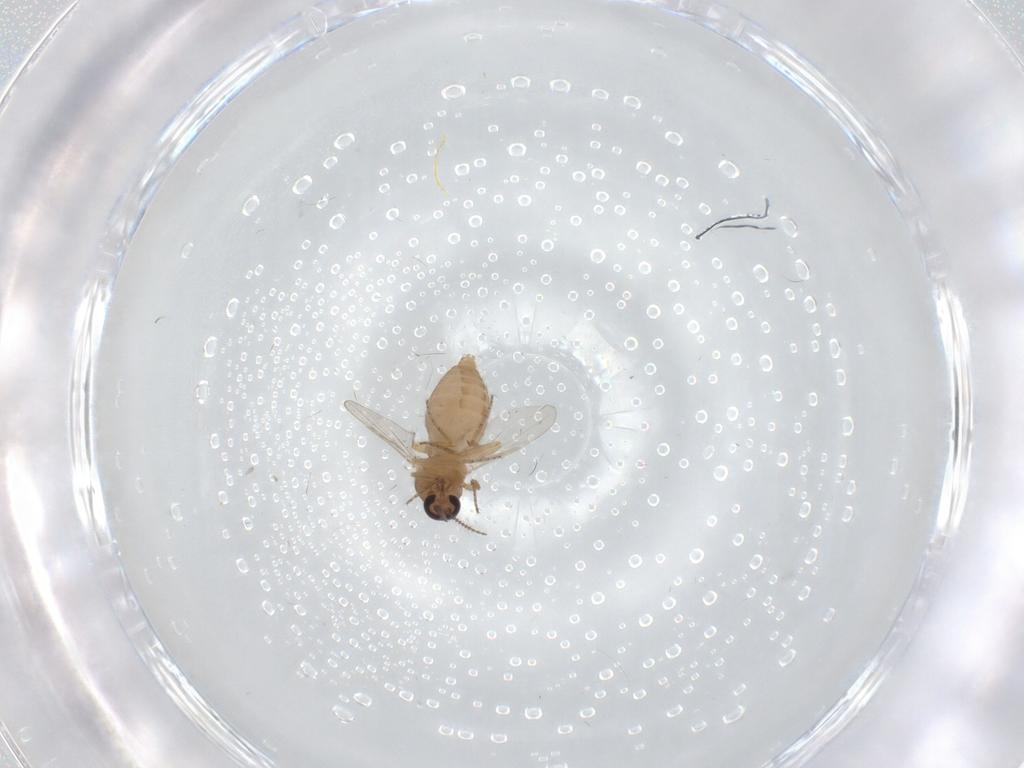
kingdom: Animalia
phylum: Arthropoda
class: Insecta
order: Diptera
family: Ceratopogonidae
